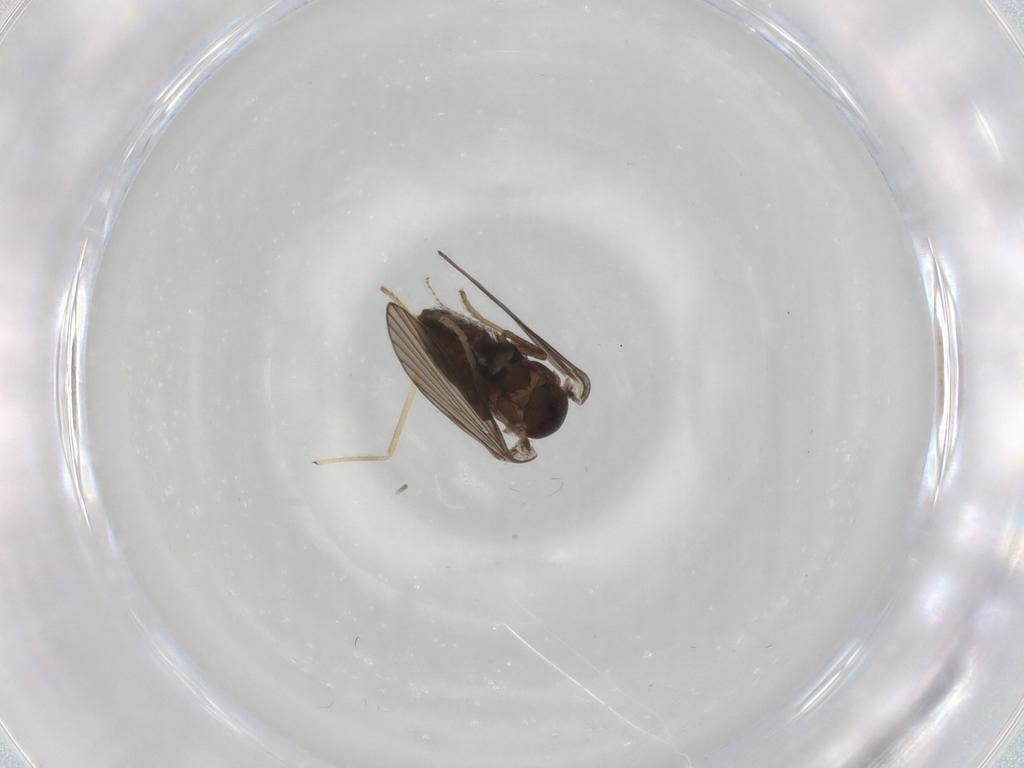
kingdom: Animalia
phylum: Arthropoda
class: Insecta
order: Diptera
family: Psychodidae
